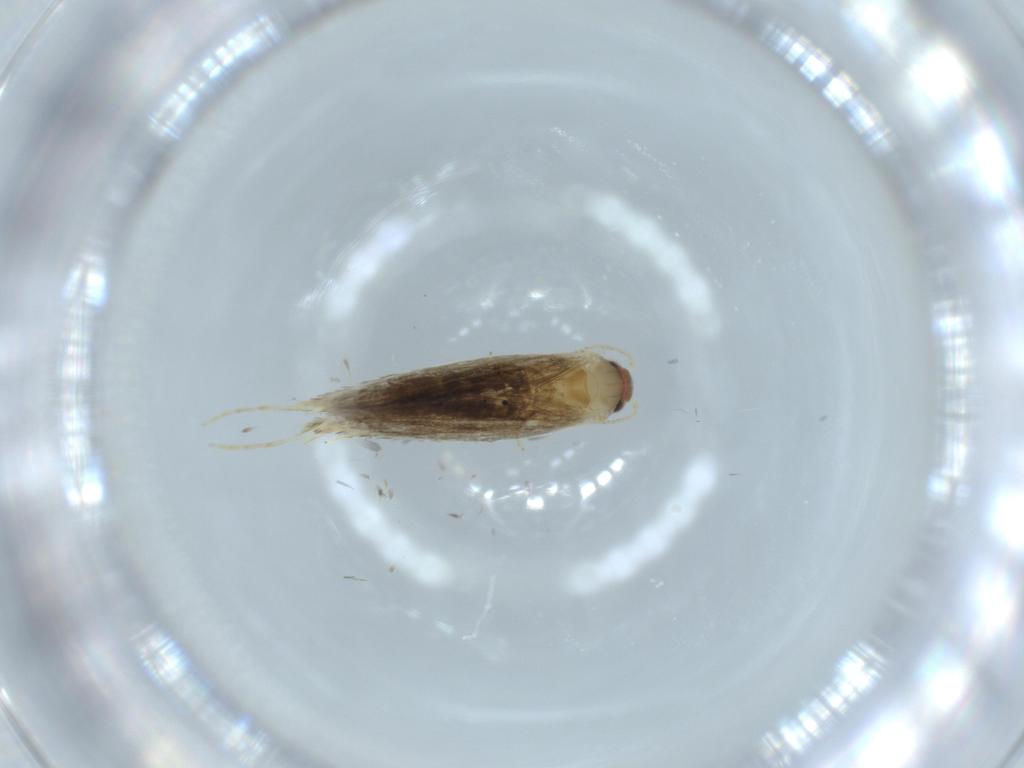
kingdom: Animalia
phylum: Arthropoda
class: Insecta
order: Lepidoptera
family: Tineidae
